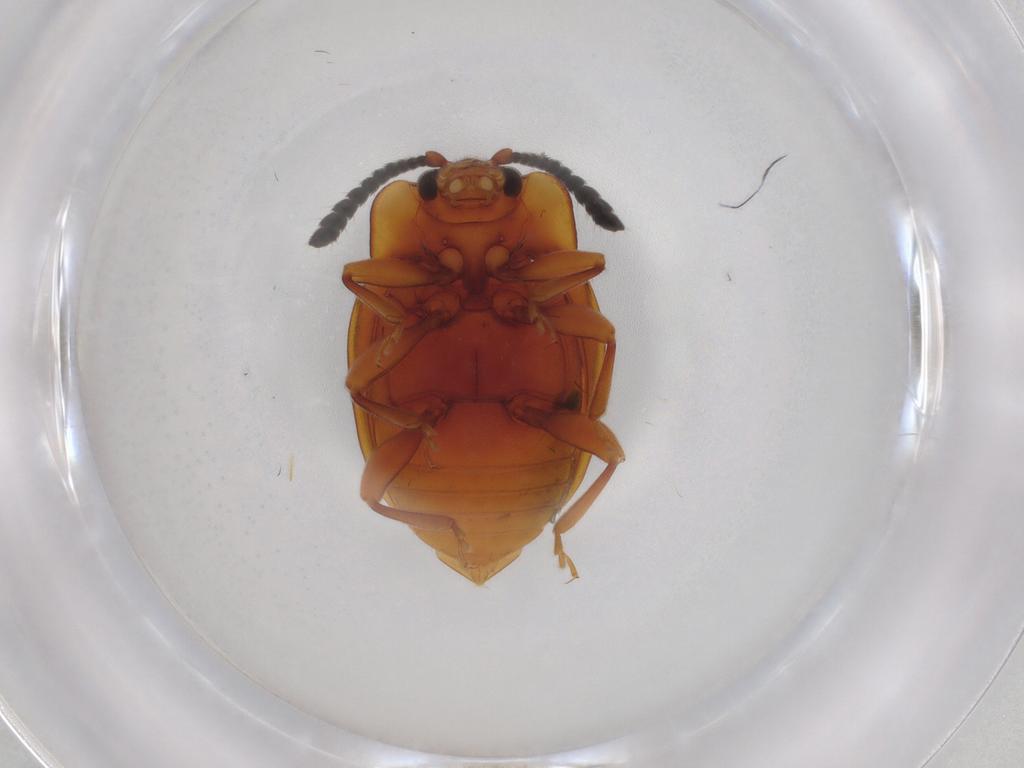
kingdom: Animalia
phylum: Arthropoda
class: Insecta
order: Coleoptera
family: Endomychidae
